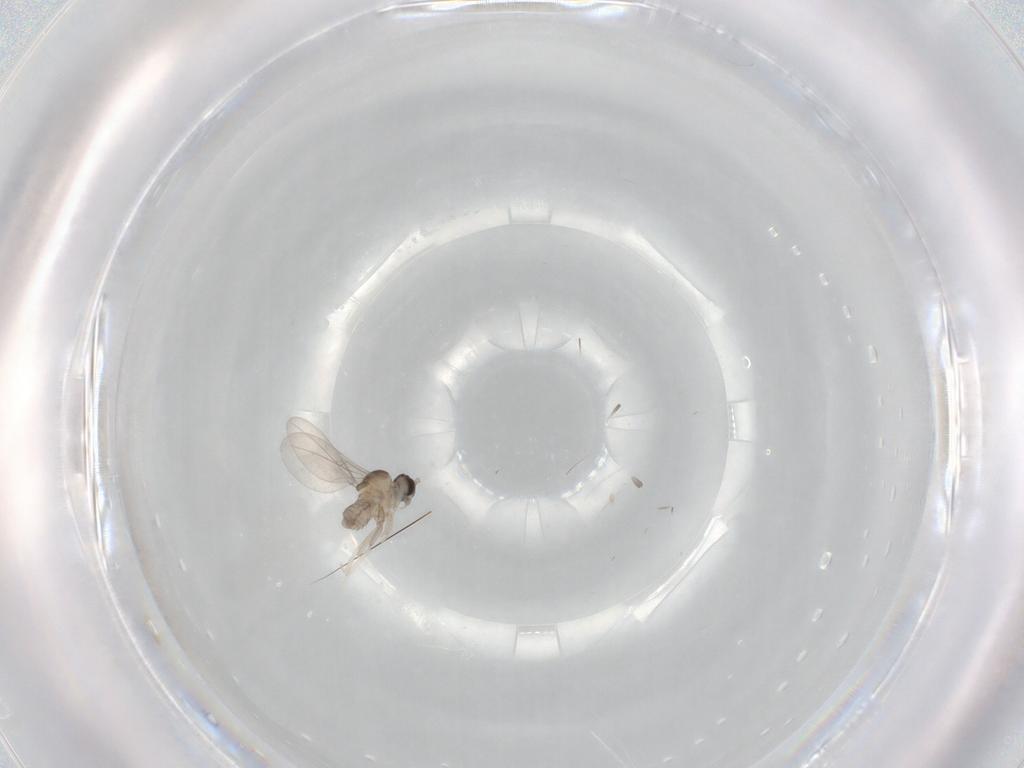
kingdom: Animalia
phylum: Arthropoda
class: Insecta
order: Diptera
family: Cecidomyiidae
